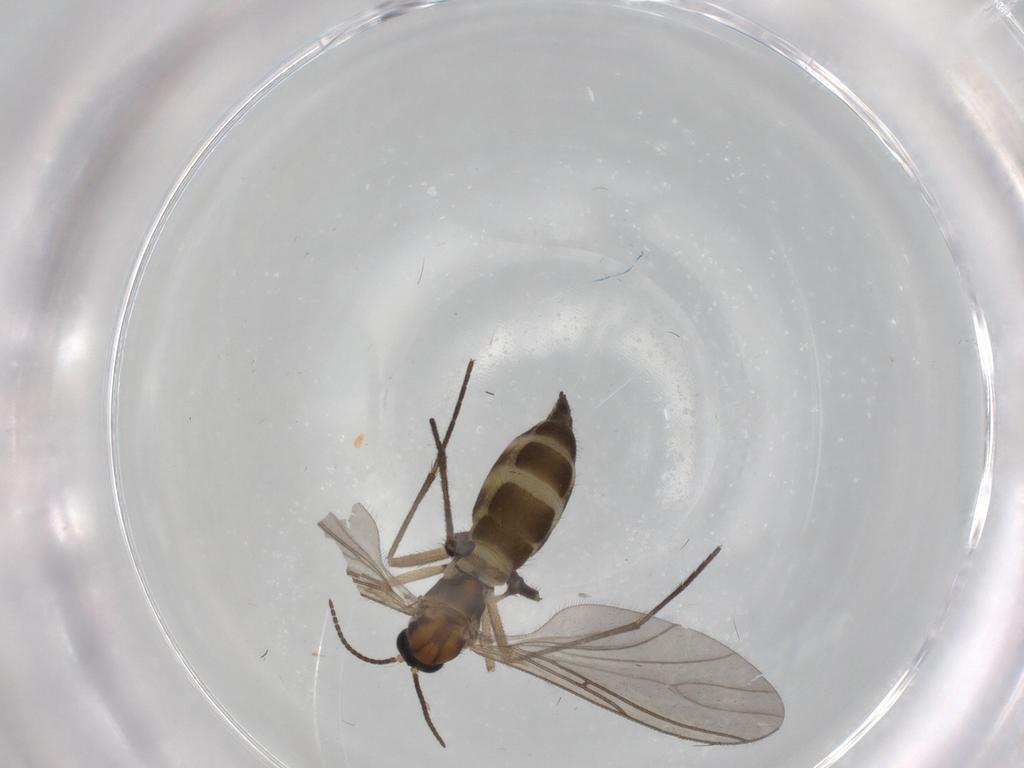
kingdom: Animalia
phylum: Arthropoda
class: Insecta
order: Diptera
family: Sciaridae
